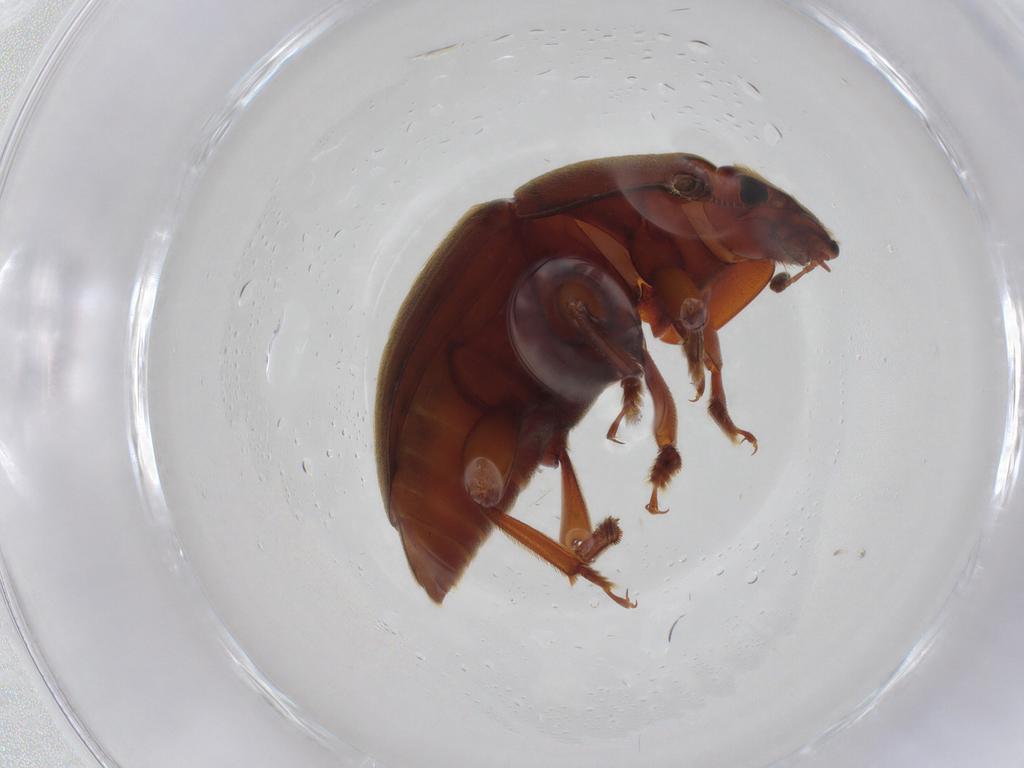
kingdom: Animalia
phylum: Arthropoda
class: Insecta
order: Coleoptera
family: Nitidulidae
